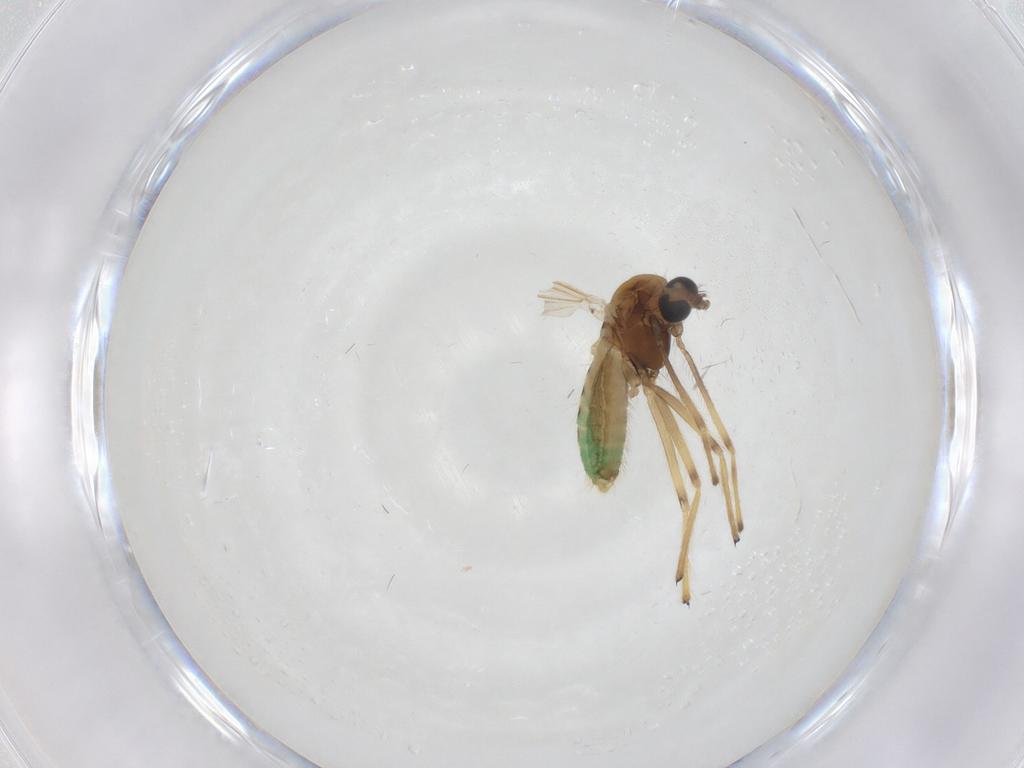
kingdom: Animalia
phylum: Arthropoda
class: Insecta
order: Diptera
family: Chironomidae
